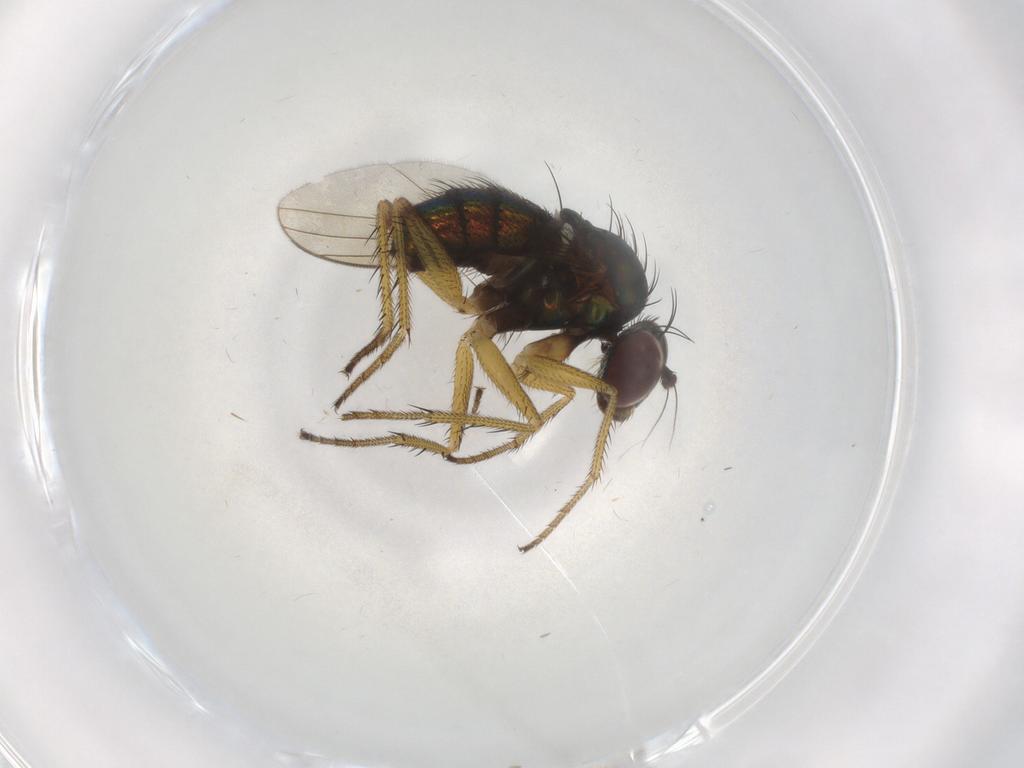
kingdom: Animalia
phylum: Arthropoda
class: Insecta
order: Diptera
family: Dolichopodidae
